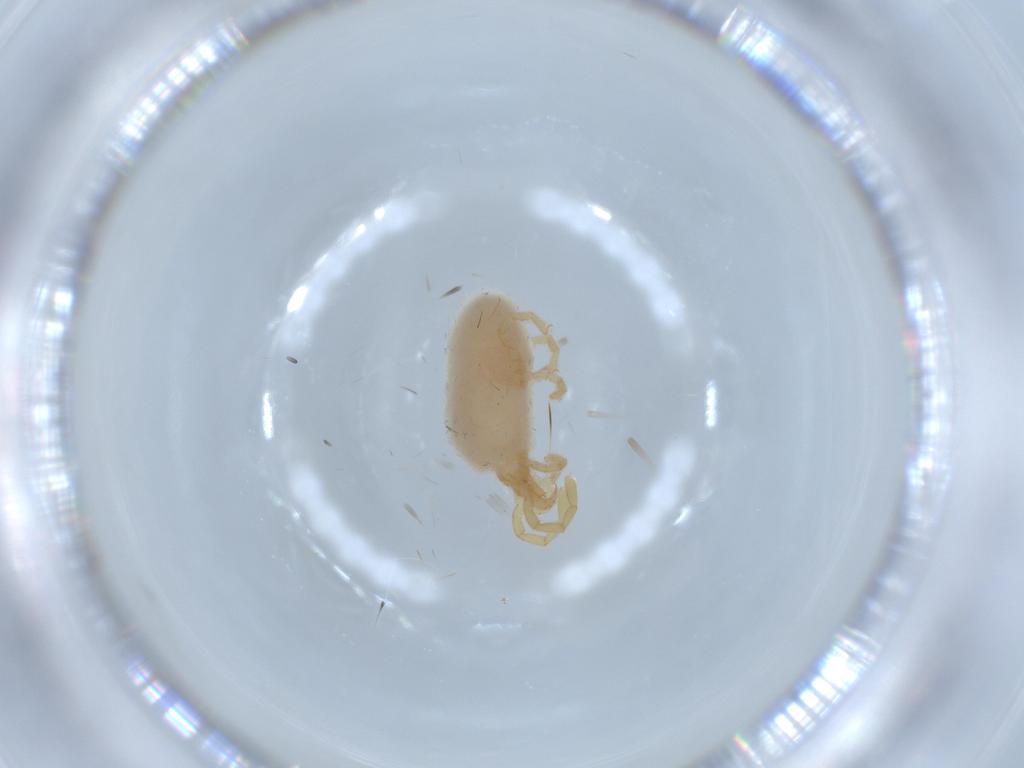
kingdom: Animalia
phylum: Arthropoda
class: Arachnida
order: Trombidiformes
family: Trombidiidae
